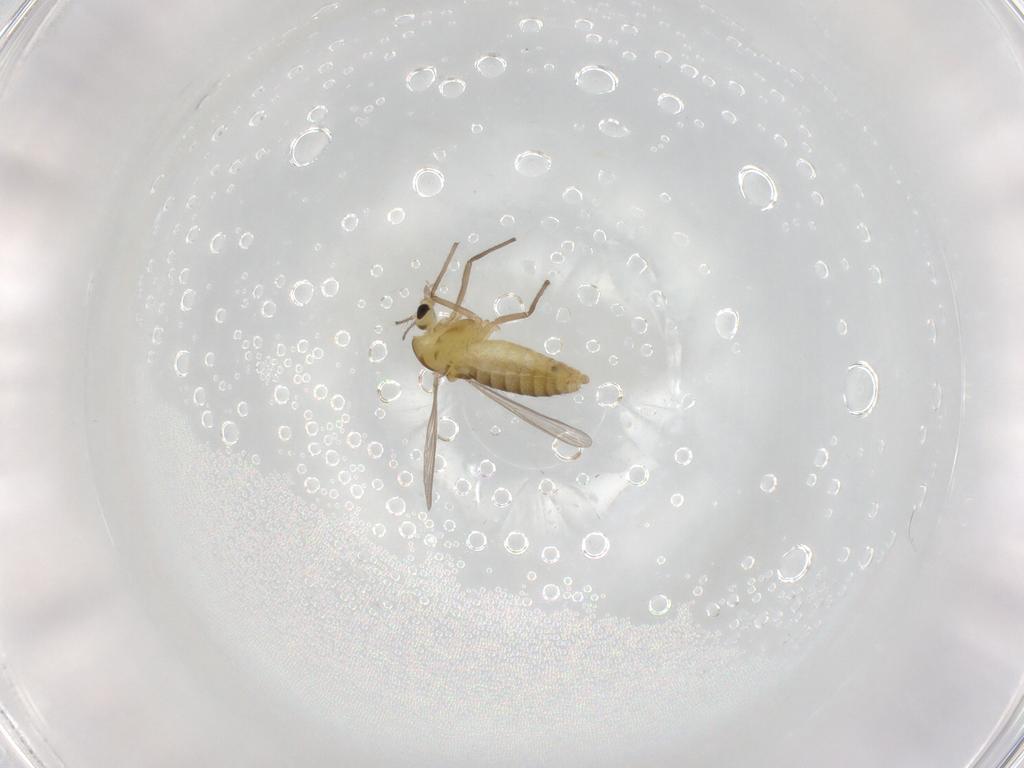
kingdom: Animalia
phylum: Arthropoda
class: Insecta
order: Diptera
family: Chironomidae
